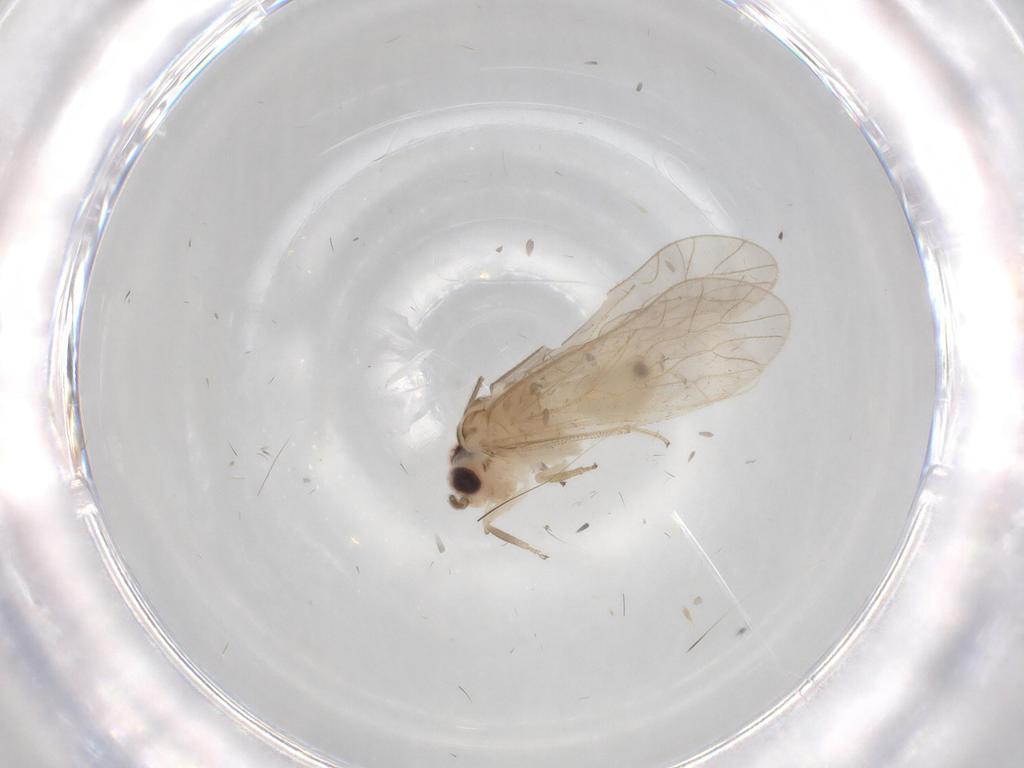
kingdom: Animalia
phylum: Arthropoda
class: Insecta
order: Psocodea
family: Caeciliusidae
